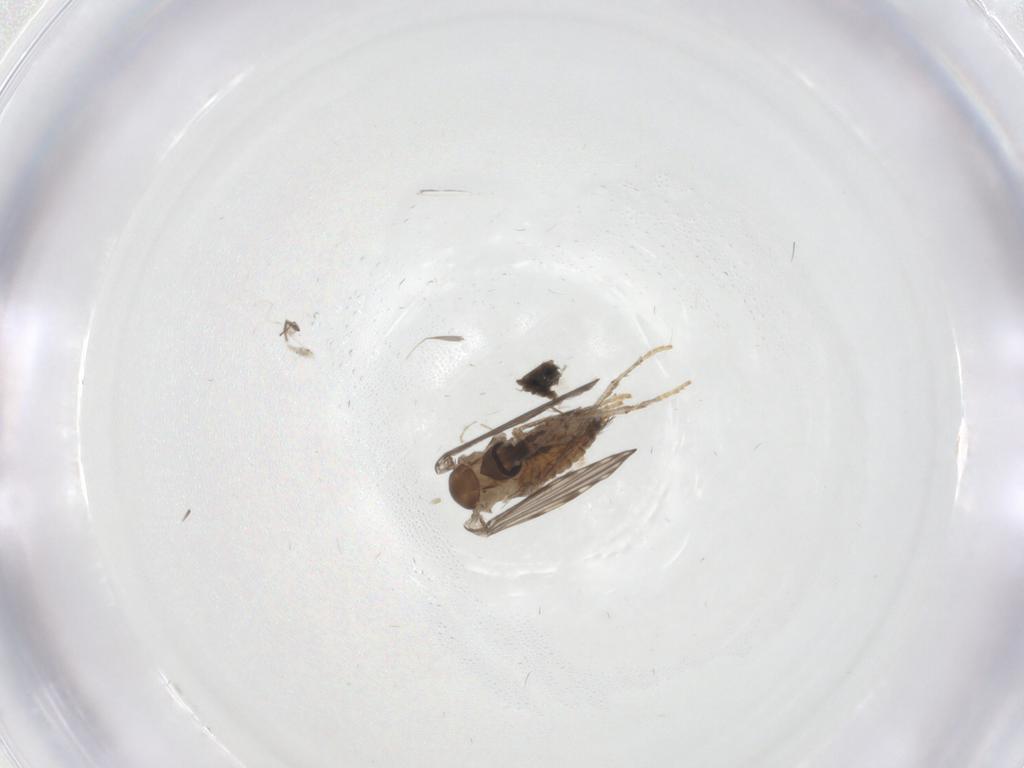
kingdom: Animalia
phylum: Arthropoda
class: Insecta
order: Diptera
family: Psychodidae
